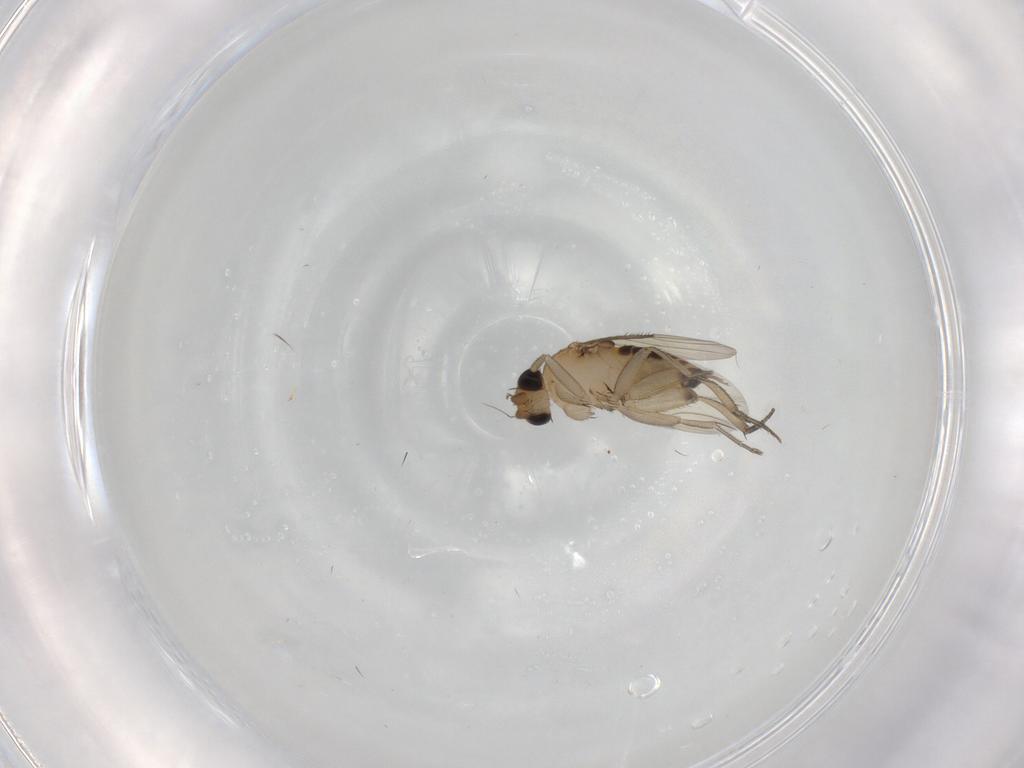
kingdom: Animalia
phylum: Arthropoda
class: Insecta
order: Diptera
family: Phoridae
